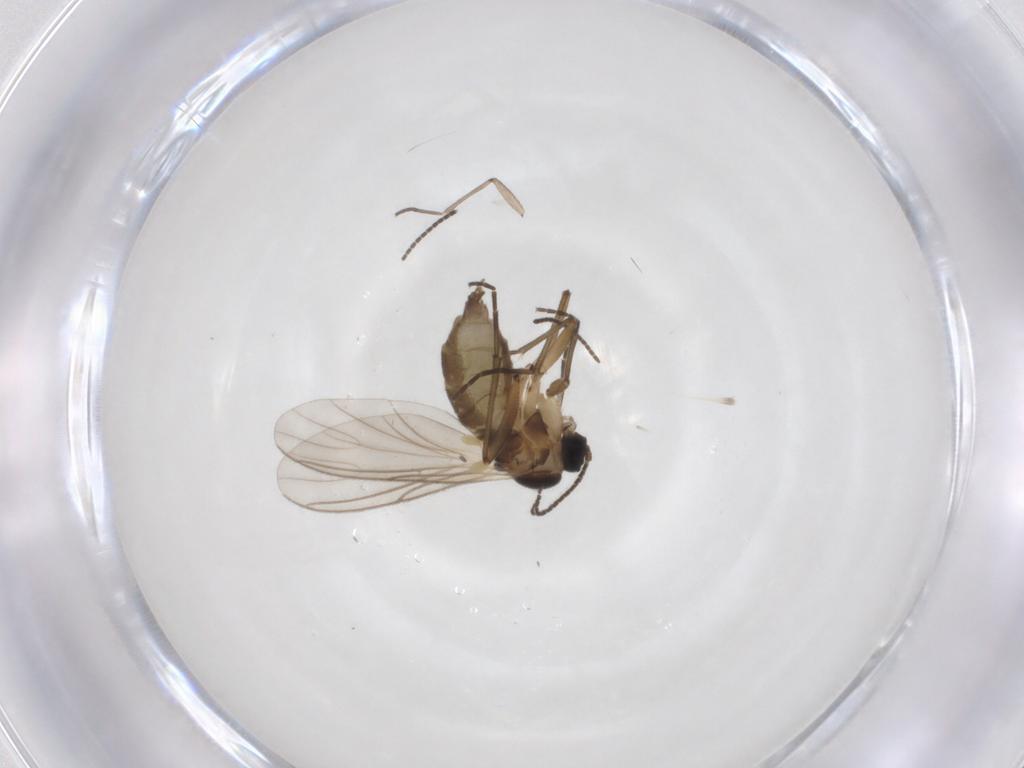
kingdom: Animalia
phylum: Arthropoda
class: Insecta
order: Diptera
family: Sciaridae
